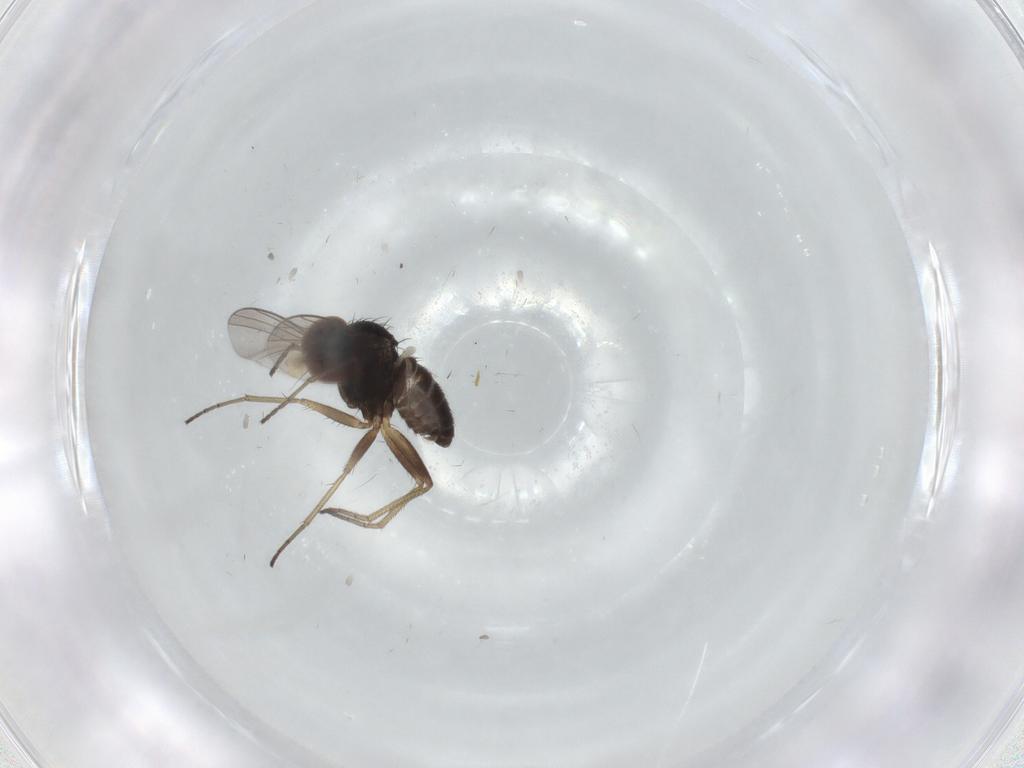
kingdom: Animalia
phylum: Arthropoda
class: Insecta
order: Diptera
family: Dolichopodidae
